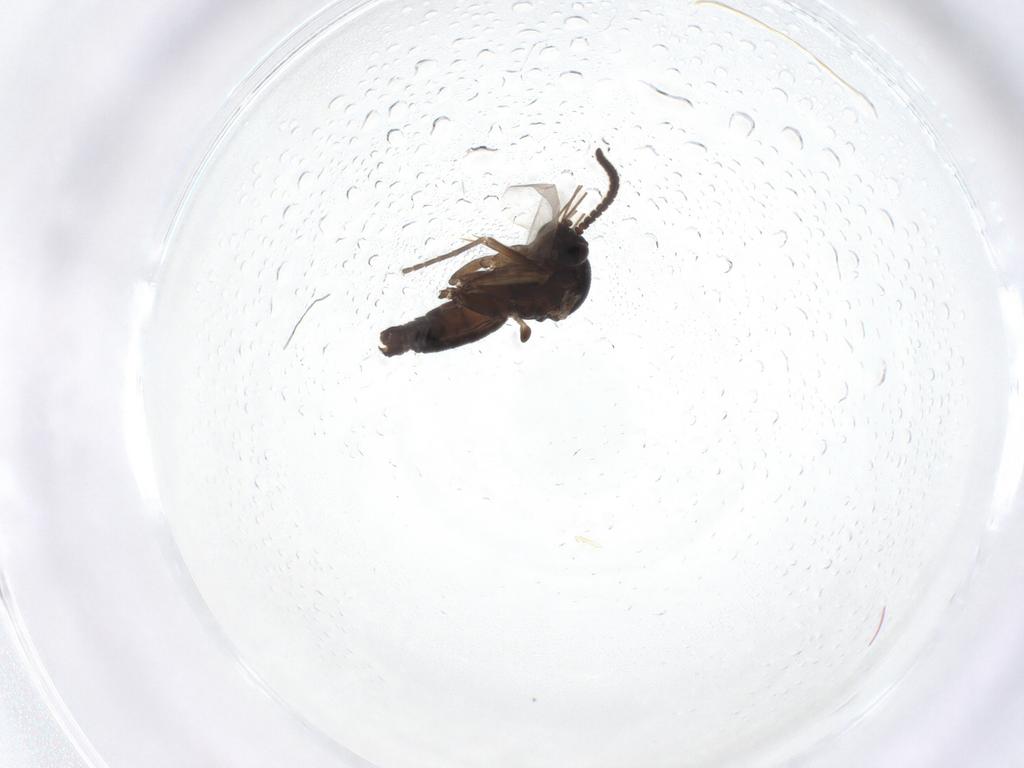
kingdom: Animalia
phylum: Arthropoda
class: Insecta
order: Diptera
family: Mycetophilidae
